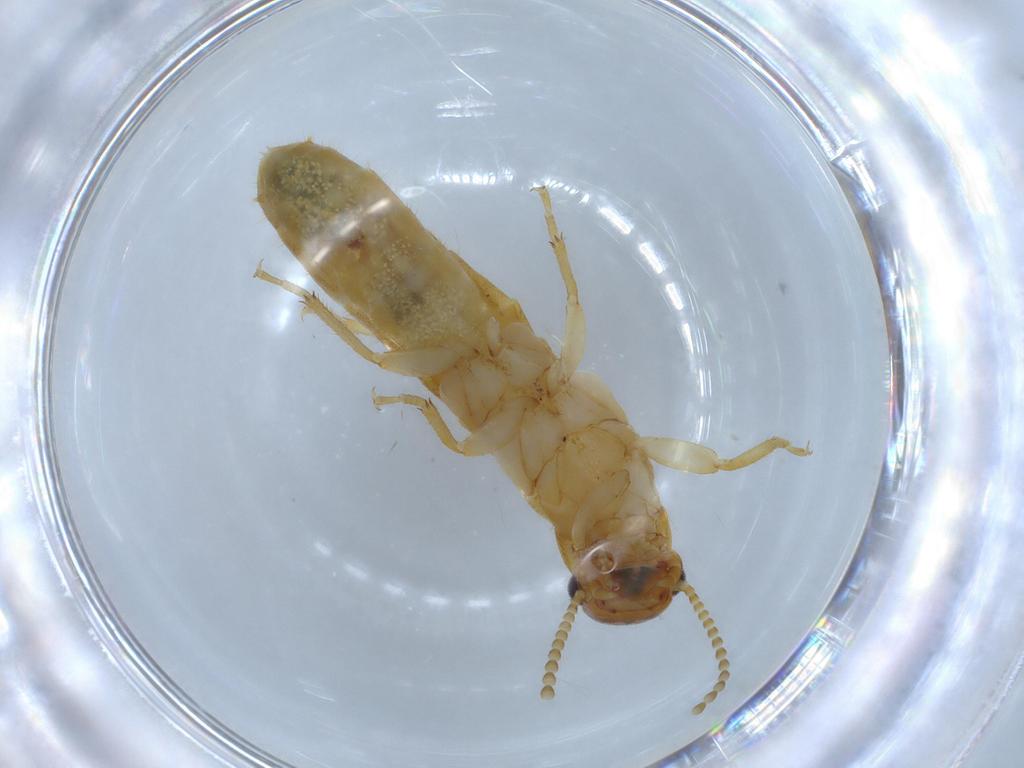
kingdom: Animalia
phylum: Arthropoda
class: Insecta
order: Blattodea
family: Kalotermitidae
